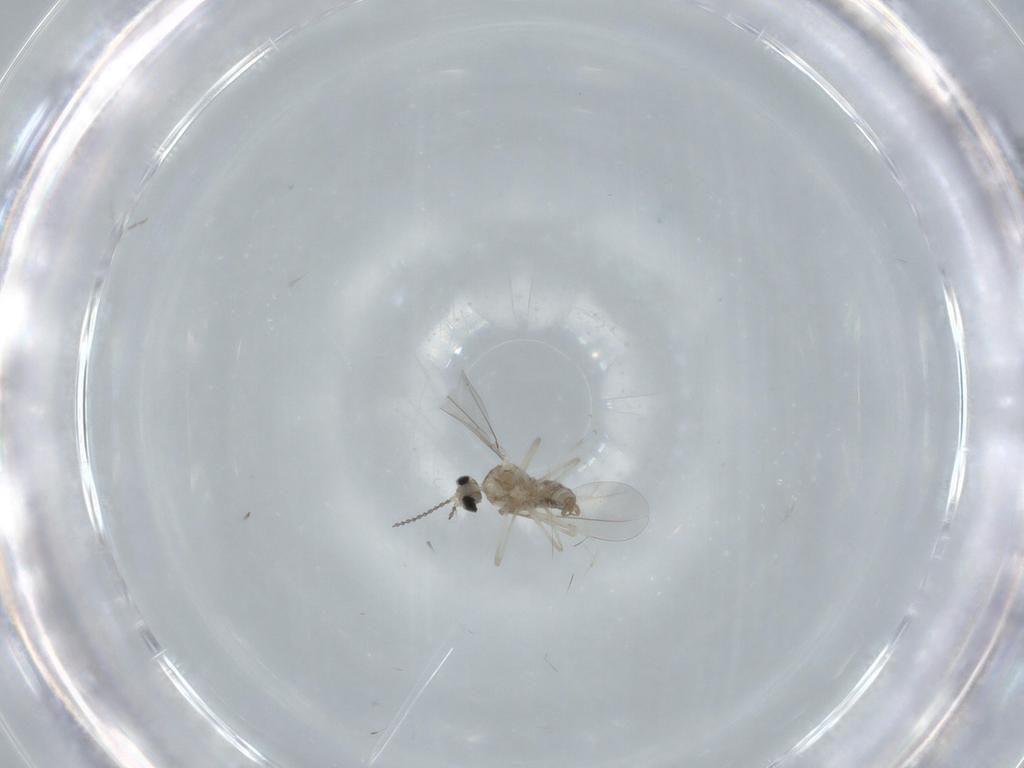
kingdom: Animalia
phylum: Arthropoda
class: Insecta
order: Diptera
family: Cecidomyiidae
